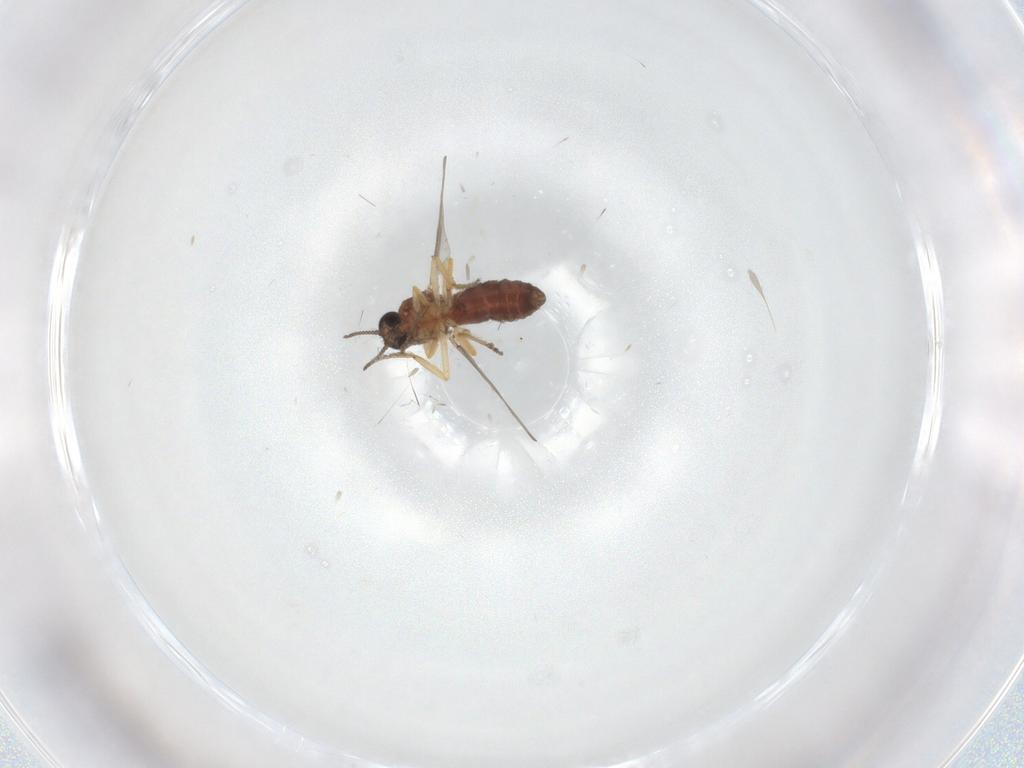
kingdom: Animalia
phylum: Arthropoda
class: Insecta
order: Diptera
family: Ceratopogonidae
